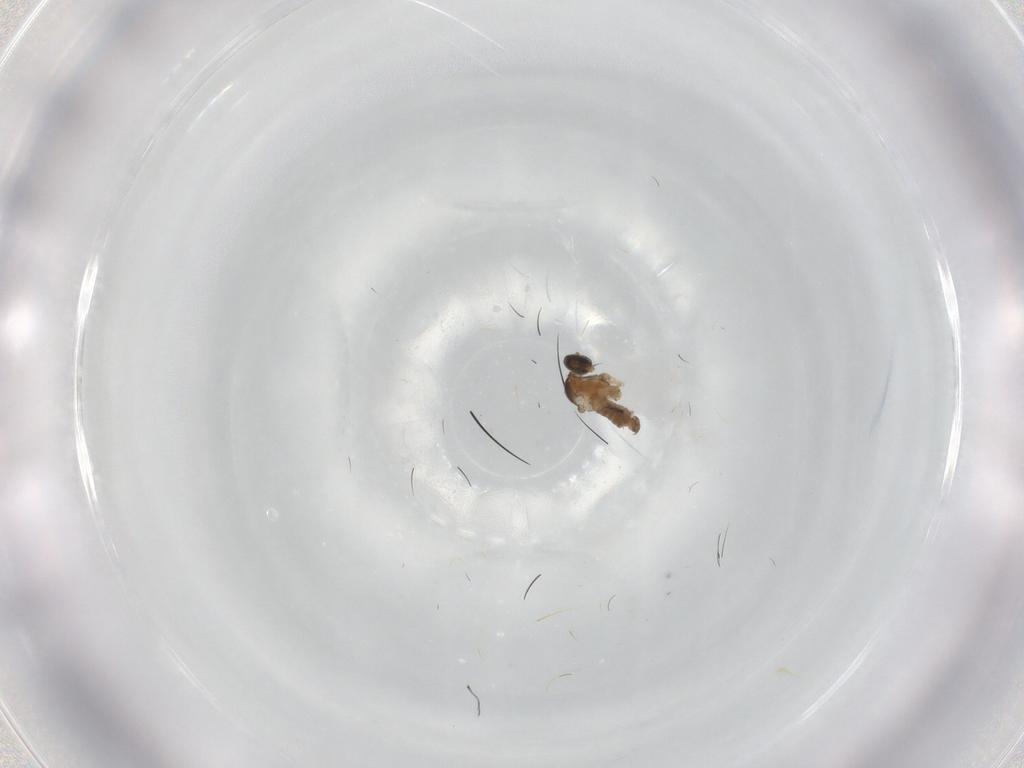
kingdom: Animalia
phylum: Arthropoda
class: Insecta
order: Diptera
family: Cecidomyiidae
